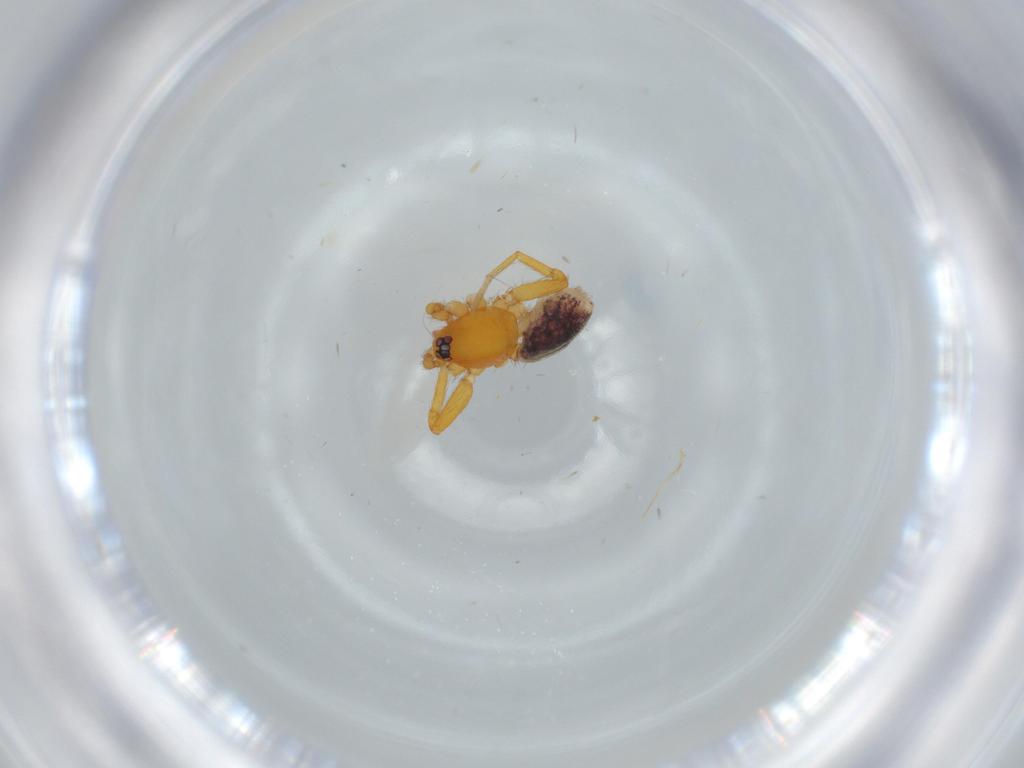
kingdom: Animalia
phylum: Arthropoda
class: Arachnida
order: Araneae
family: Oonopidae
